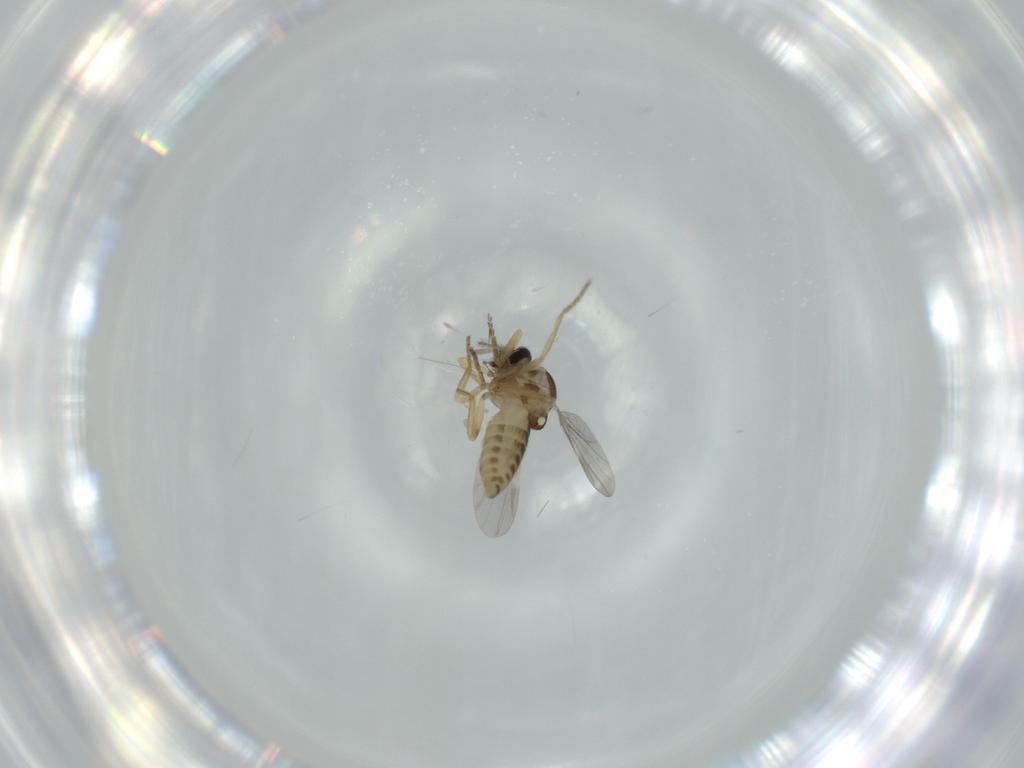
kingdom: Animalia
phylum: Arthropoda
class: Insecta
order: Diptera
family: Ceratopogonidae
